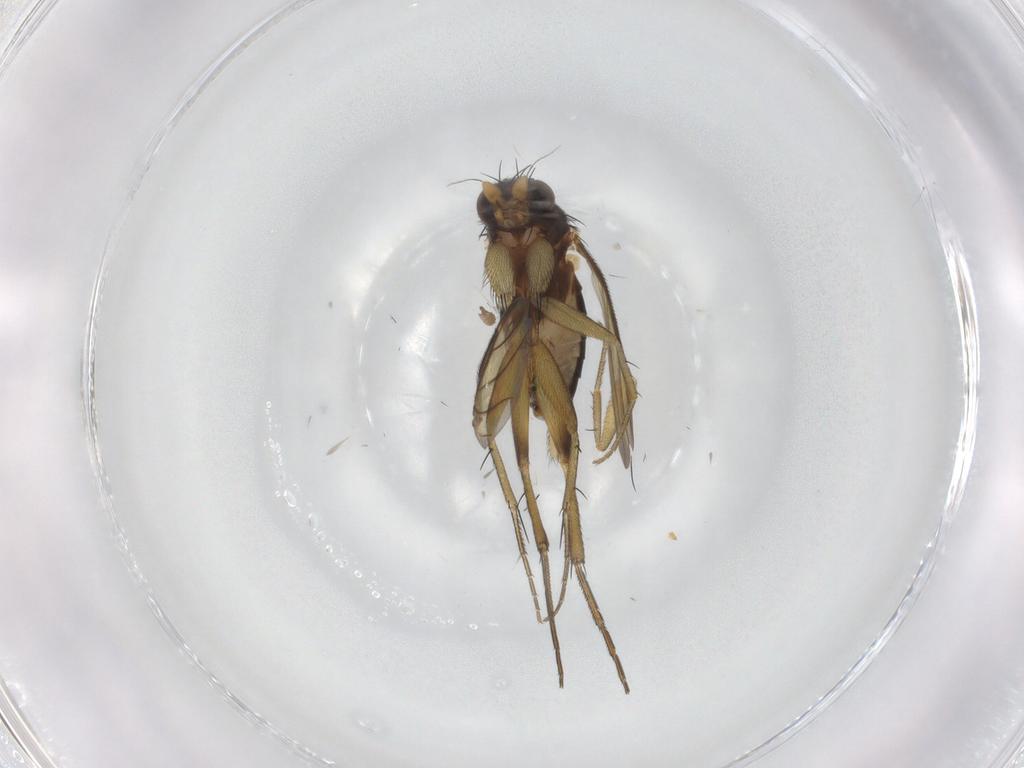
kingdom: Animalia
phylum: Arthropoda
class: Insecta
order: Diptera
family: Phoridae
